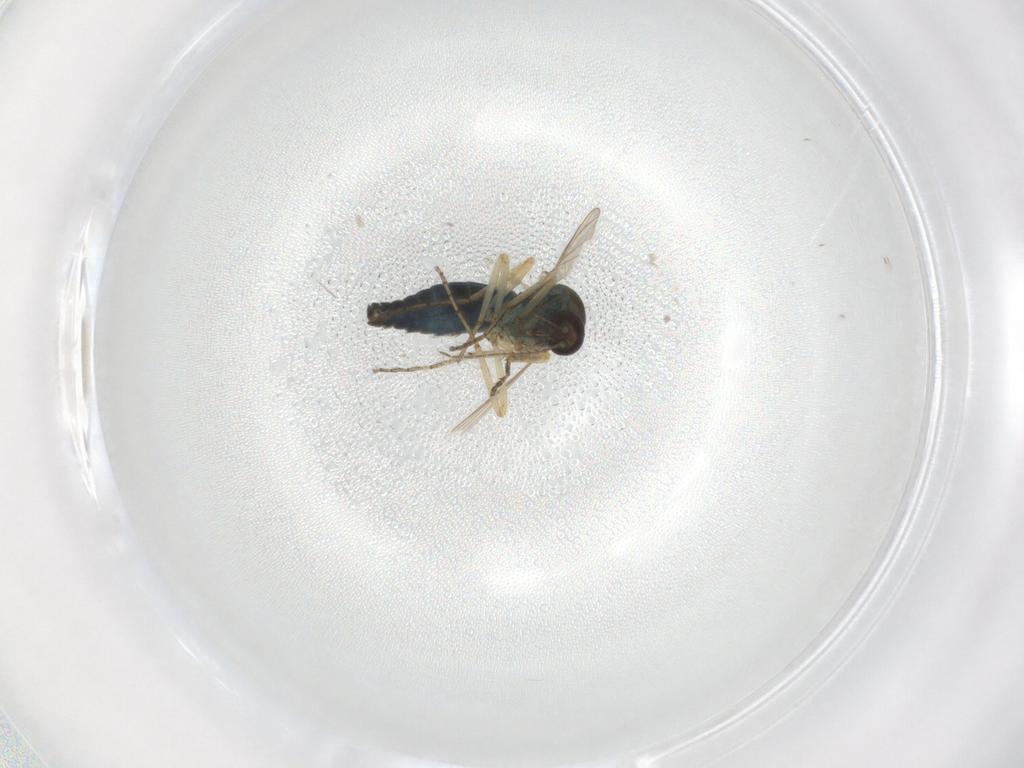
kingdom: Animalia
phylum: Arthropoda
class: Insecta
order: Diptera
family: Ceratopogonidae
